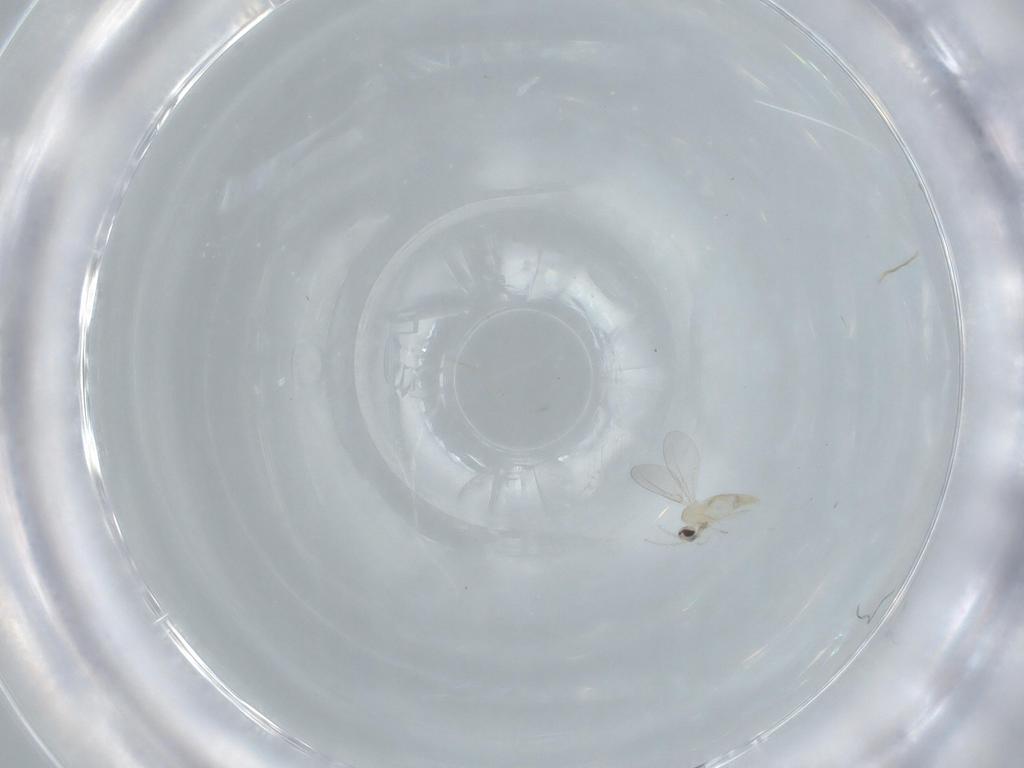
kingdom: Animalia
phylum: Arthropoda
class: Insecta
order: Diptera
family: Cecidomyiidae
